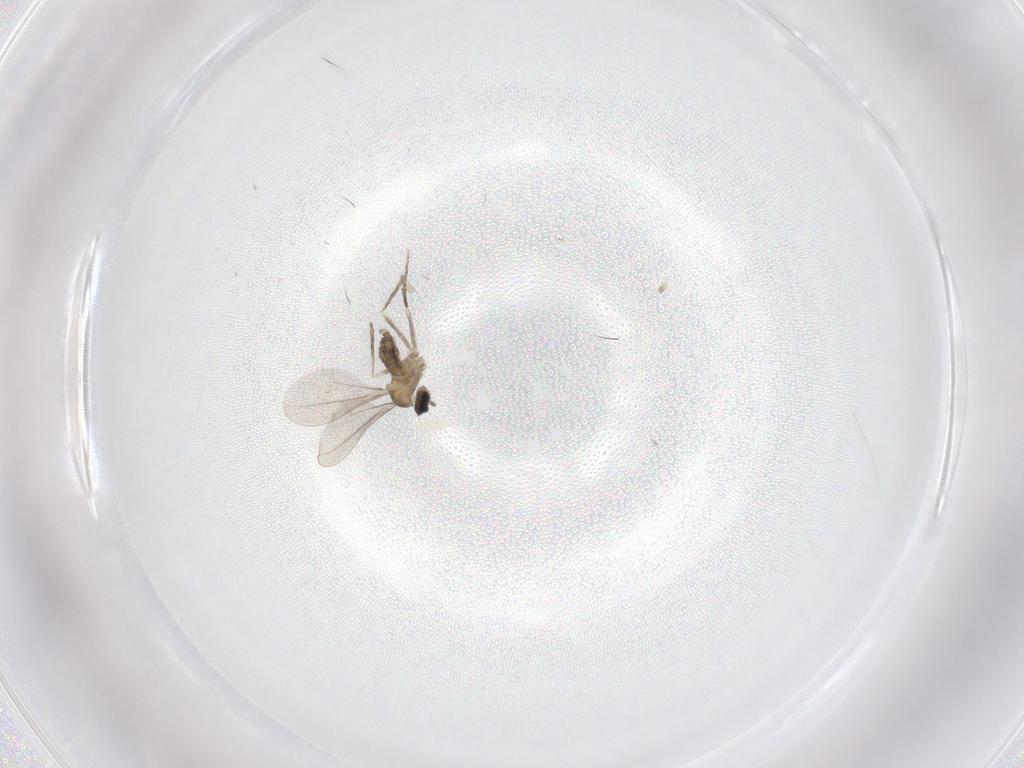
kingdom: Animalia
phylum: Arthropoda
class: Insecta
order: Diptera
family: Cecidomyiidae
